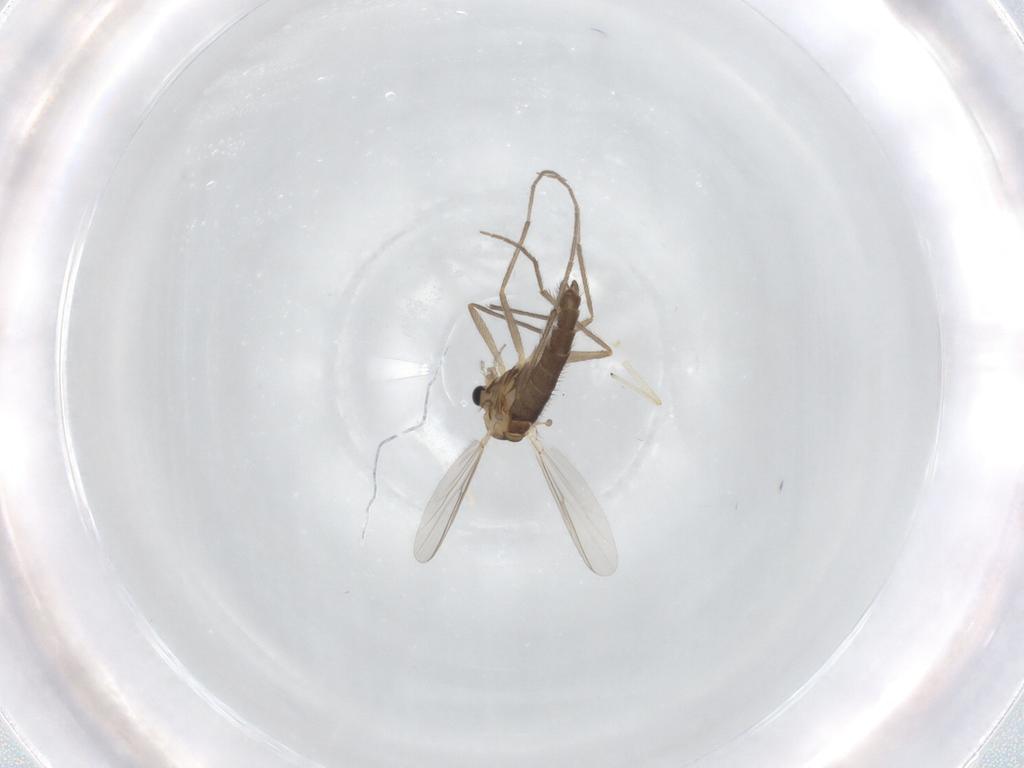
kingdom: Animalia
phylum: Arthropoda
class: Insecta
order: Diptera
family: Chironomidae
